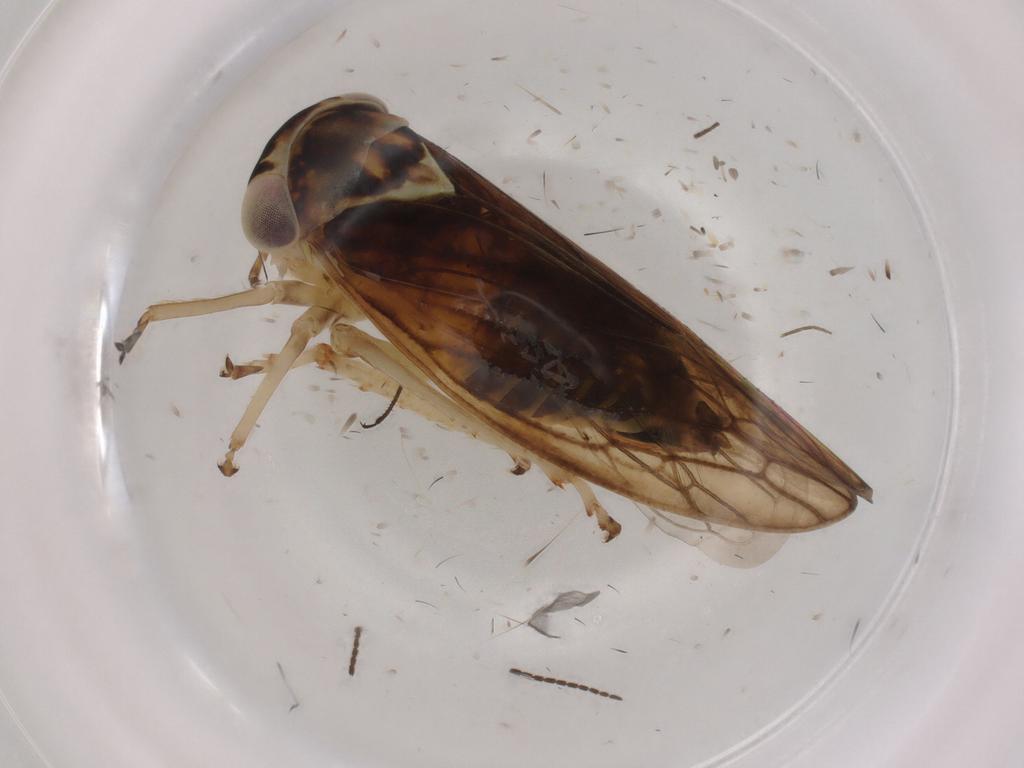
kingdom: Animalia
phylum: Arthropoda
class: Insecta
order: Hemiptera
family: Cicadellidae
